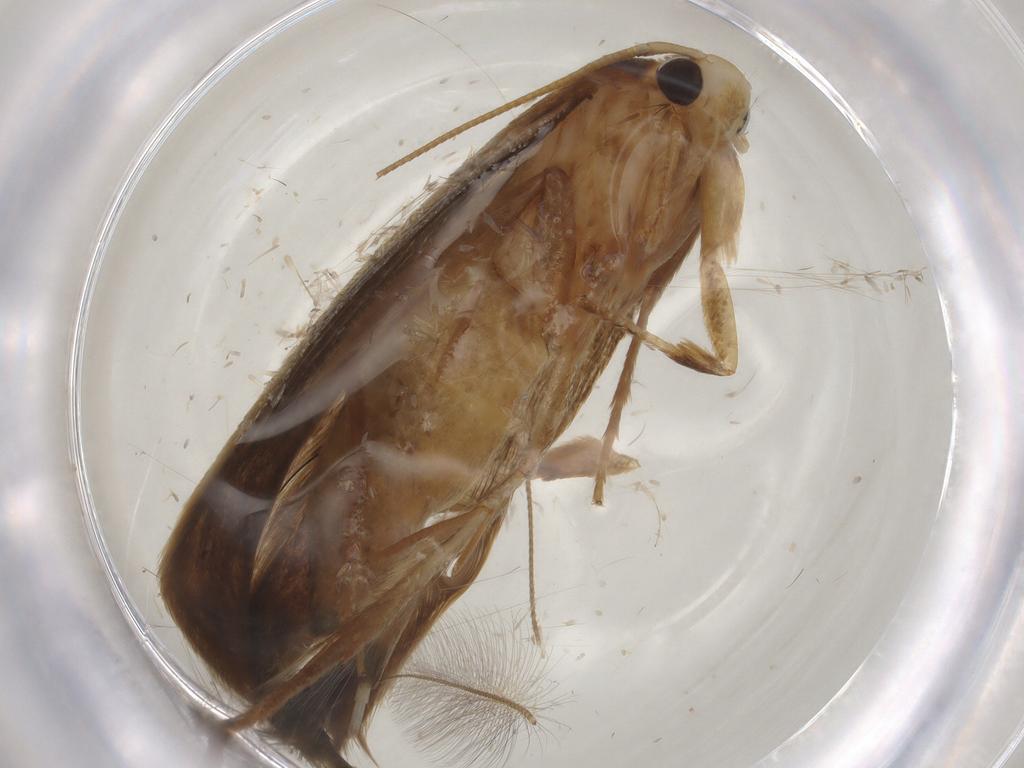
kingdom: Animalia
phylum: Arthropoda
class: Insecta
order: Lepidoptera
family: Tineidae
